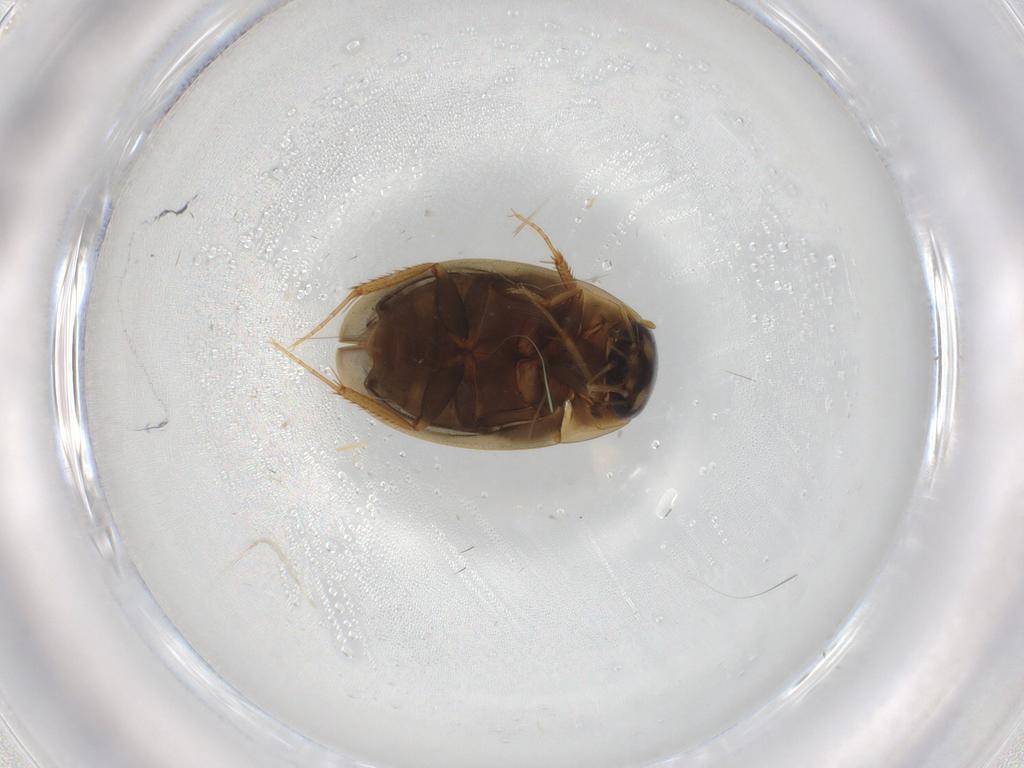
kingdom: Animalia
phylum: Arthropoda
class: Insecta
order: Coleoptera
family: Hydrophilidae
